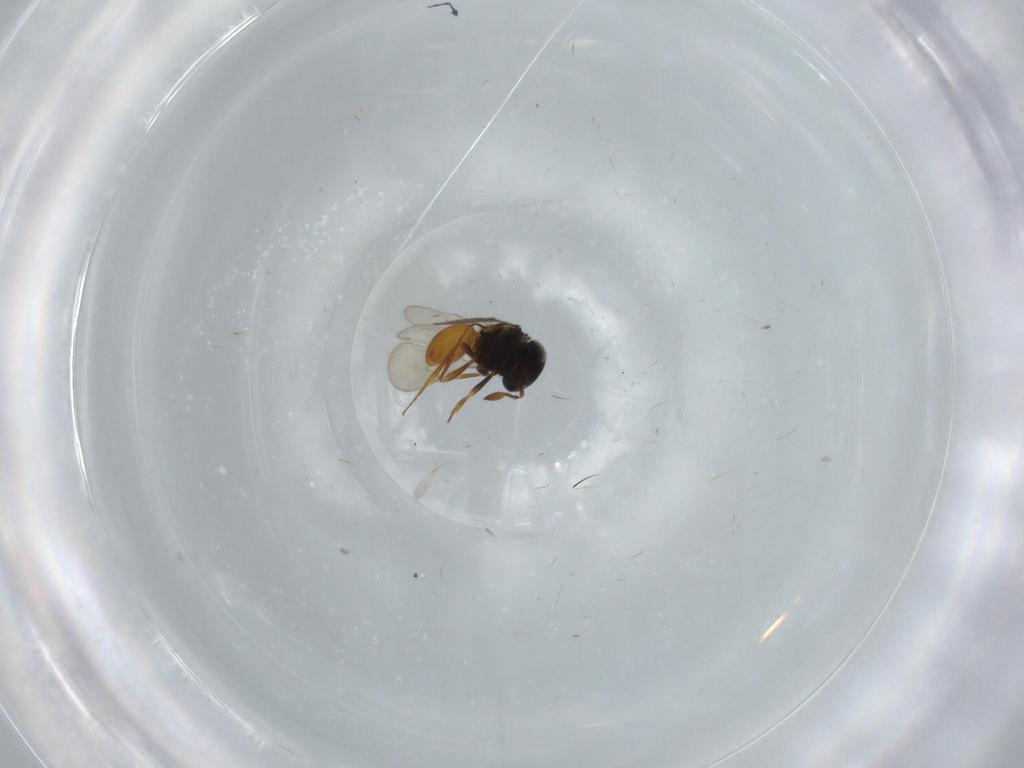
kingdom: Animalia
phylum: Arthropoda
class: Insecta
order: Hymenoptera
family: Scelionidae
